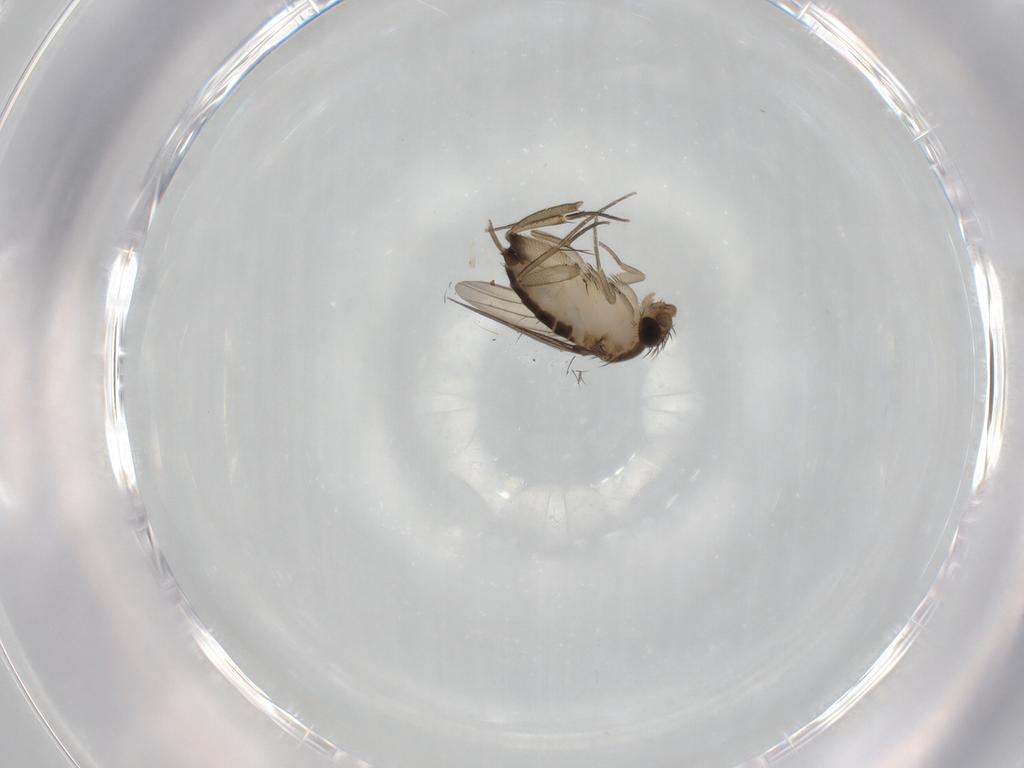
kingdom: Animalia
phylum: Arthropoda
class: Insecta
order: Diptera
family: Phoridae
